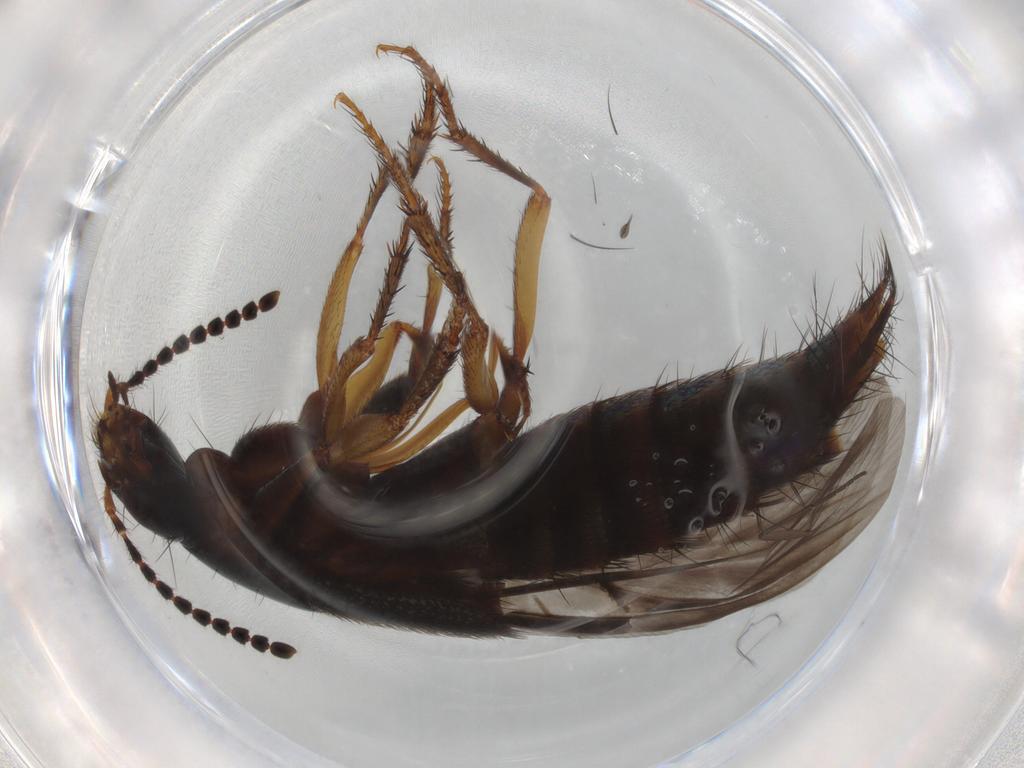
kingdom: Animalia
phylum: Arthropoda
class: Insecta
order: Coleoptera
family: Staphylinidae
